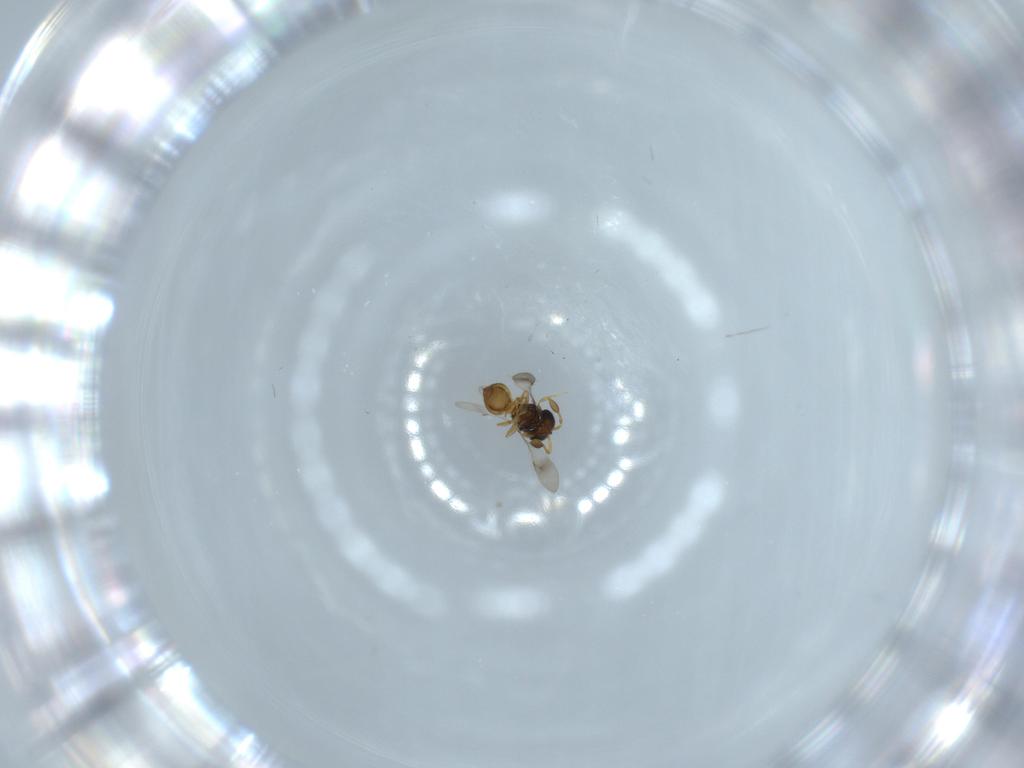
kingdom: Animalia
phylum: Arthropoda
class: Insecta
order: Hymenoptera
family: Scelionidae
